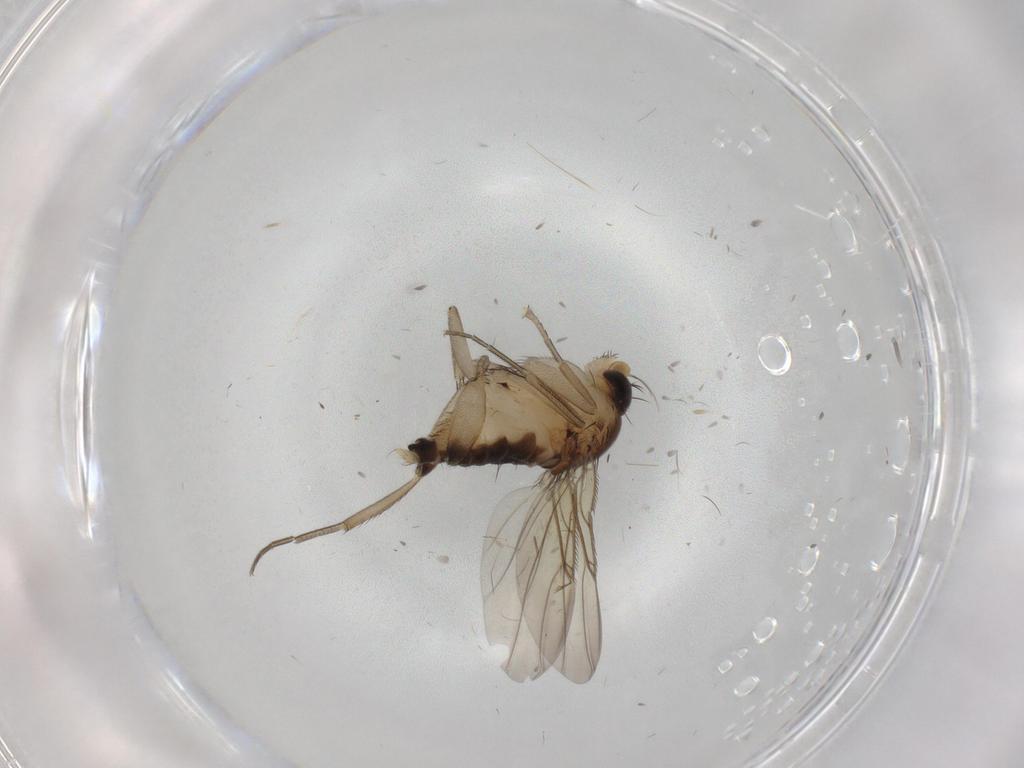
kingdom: Animalia
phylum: Arthropoda
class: Insecta
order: Diptera
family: Phoridae
